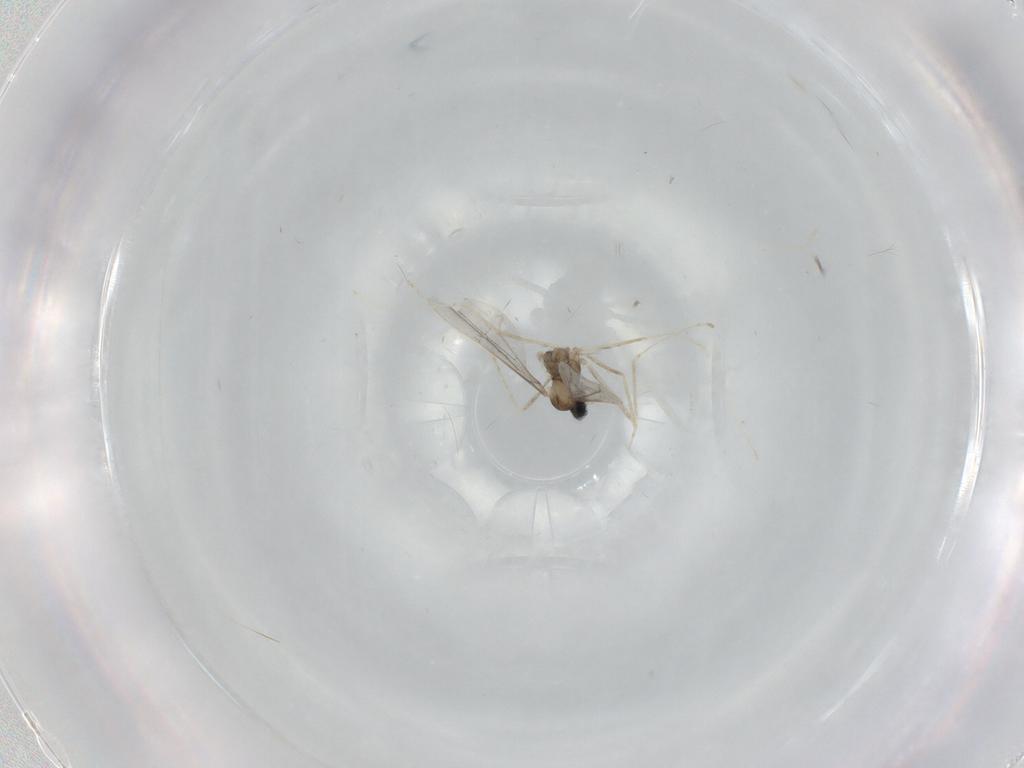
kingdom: Animalia
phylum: Arthropoda
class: Insecta
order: Diptera
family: Cecidomyiidae
